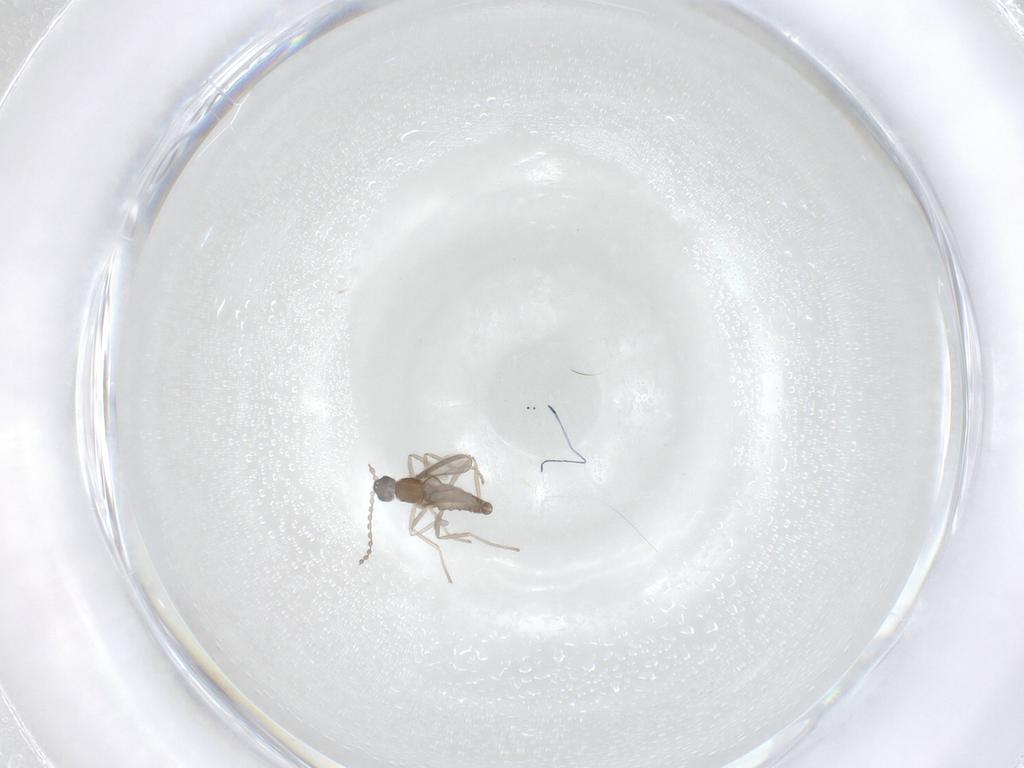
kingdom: Animalia
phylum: Arthropoda
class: Insecta
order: Diptera
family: Cecidomyiidae
